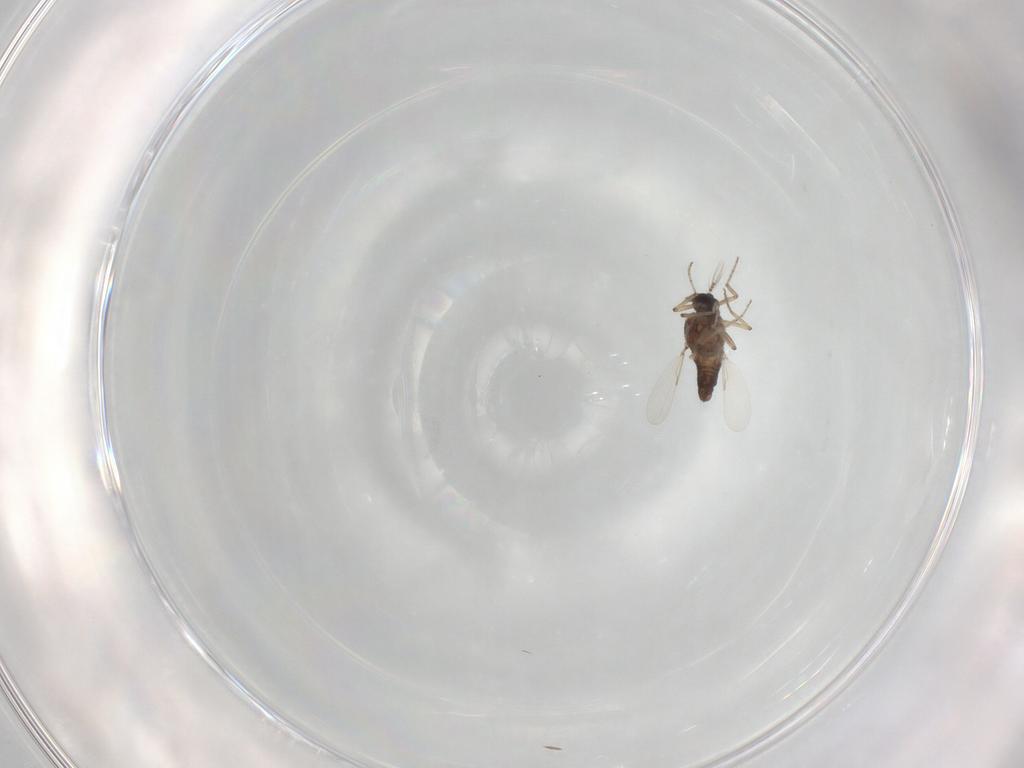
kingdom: Animalia
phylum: Arthropoda
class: Insecta
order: Diptera
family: Ceratopogonidae
